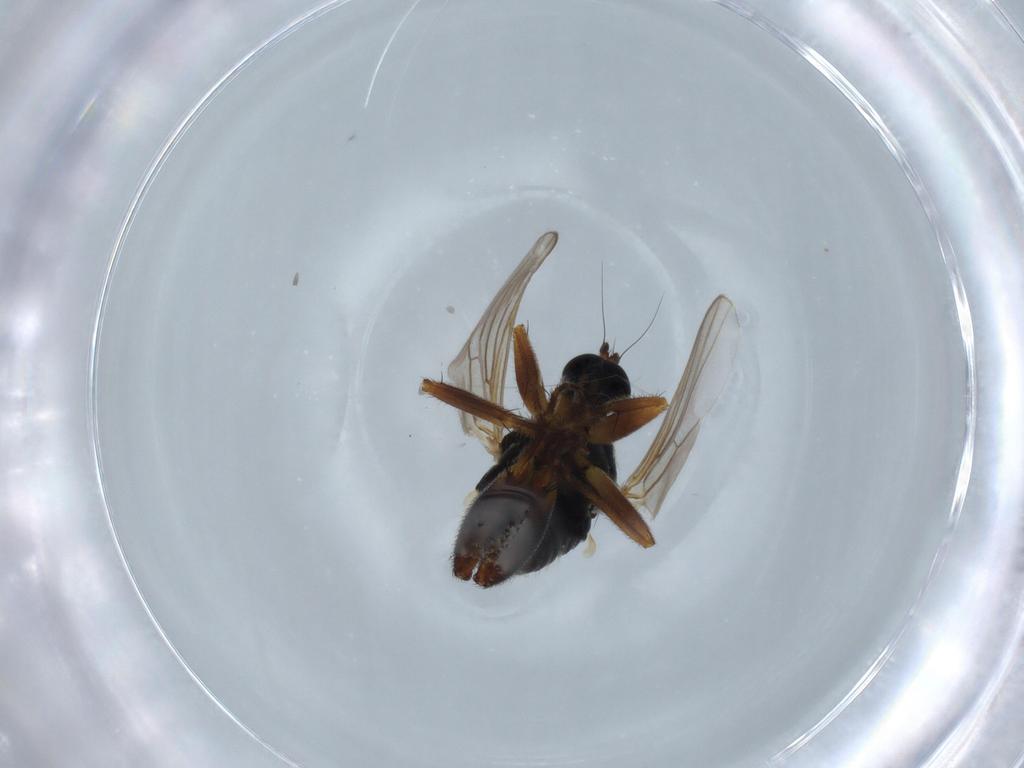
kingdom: Animalia
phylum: Arthropoda
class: Insecta
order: Diptera
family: Hybotidae
